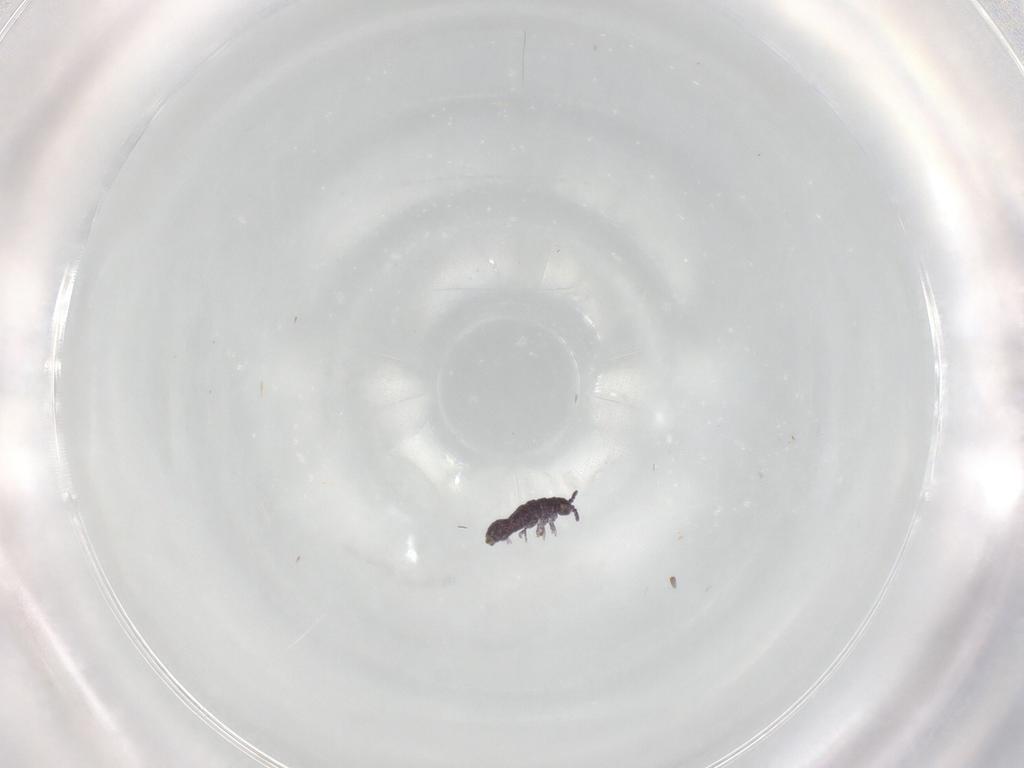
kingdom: Animalia
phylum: Arthropoda
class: Collembola
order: Poduromorpha
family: Brachystomellidae
